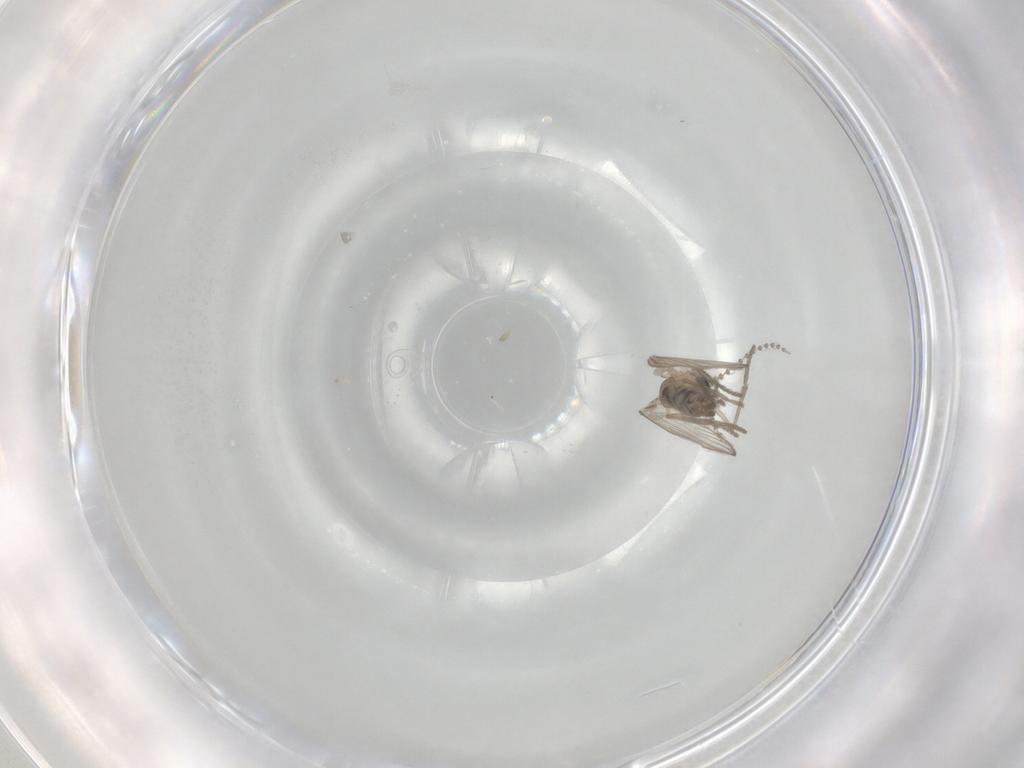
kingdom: Animalia
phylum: Arthropoda
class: Insecta
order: Diptera
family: Psychodidae
